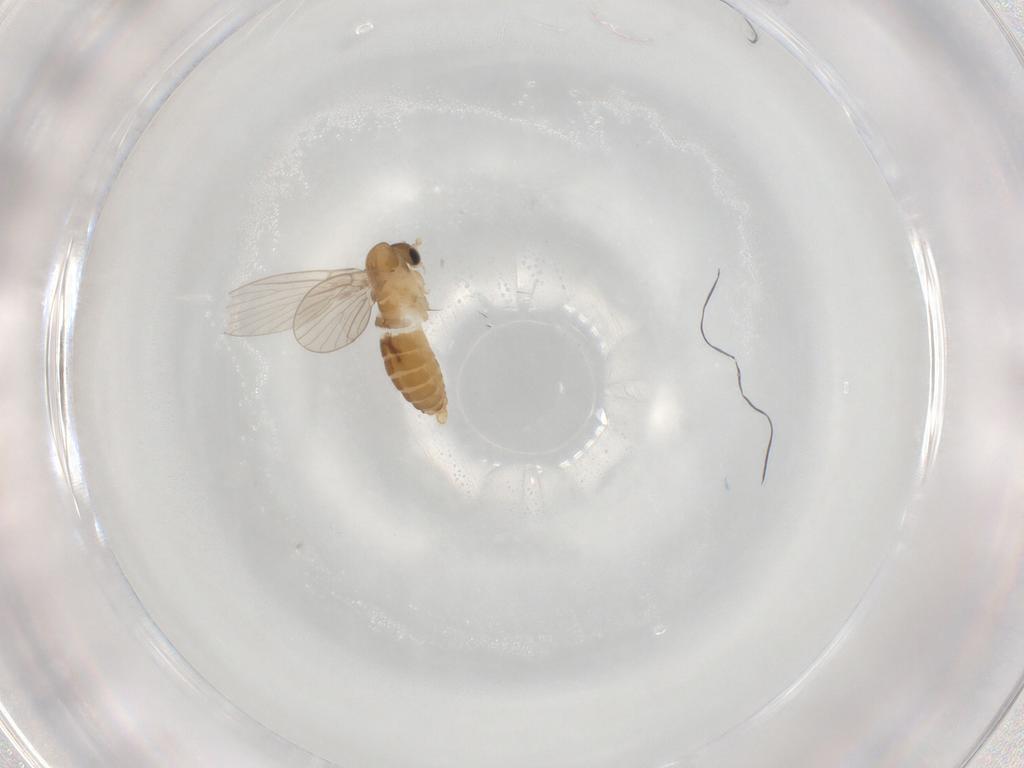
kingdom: Animalia
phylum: Arthropoda
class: Insecta
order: Diptera
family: Psychodidae
